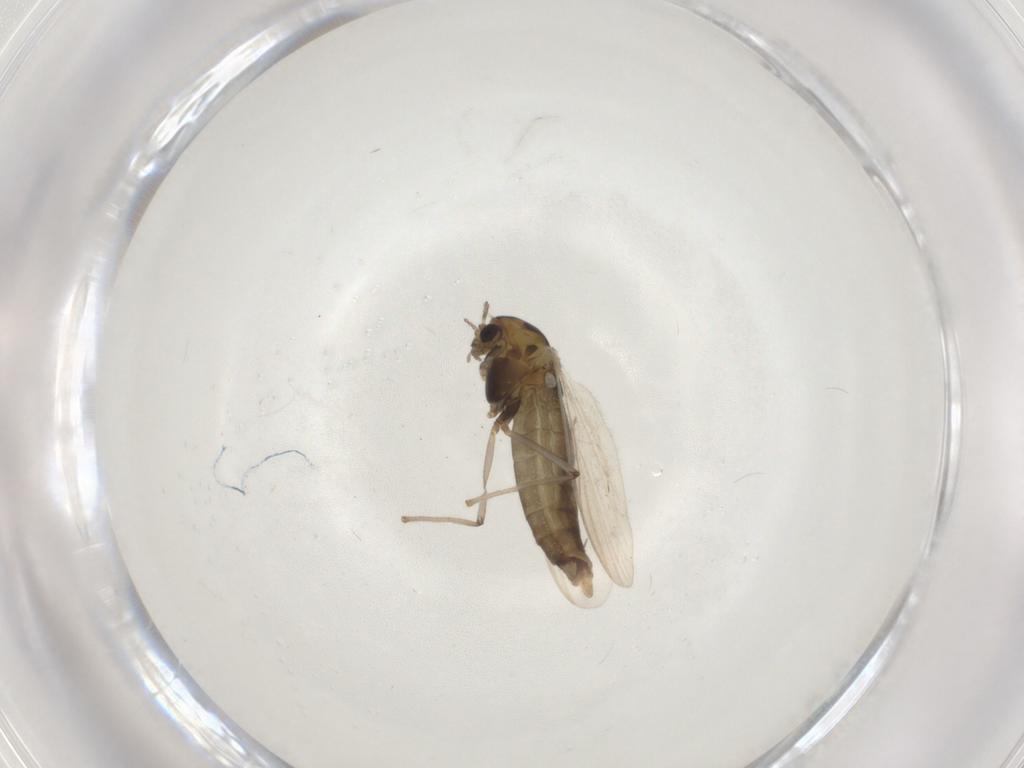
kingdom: Animalia
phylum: Arthropoda
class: Insecta
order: Diptera
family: Chironomidae
